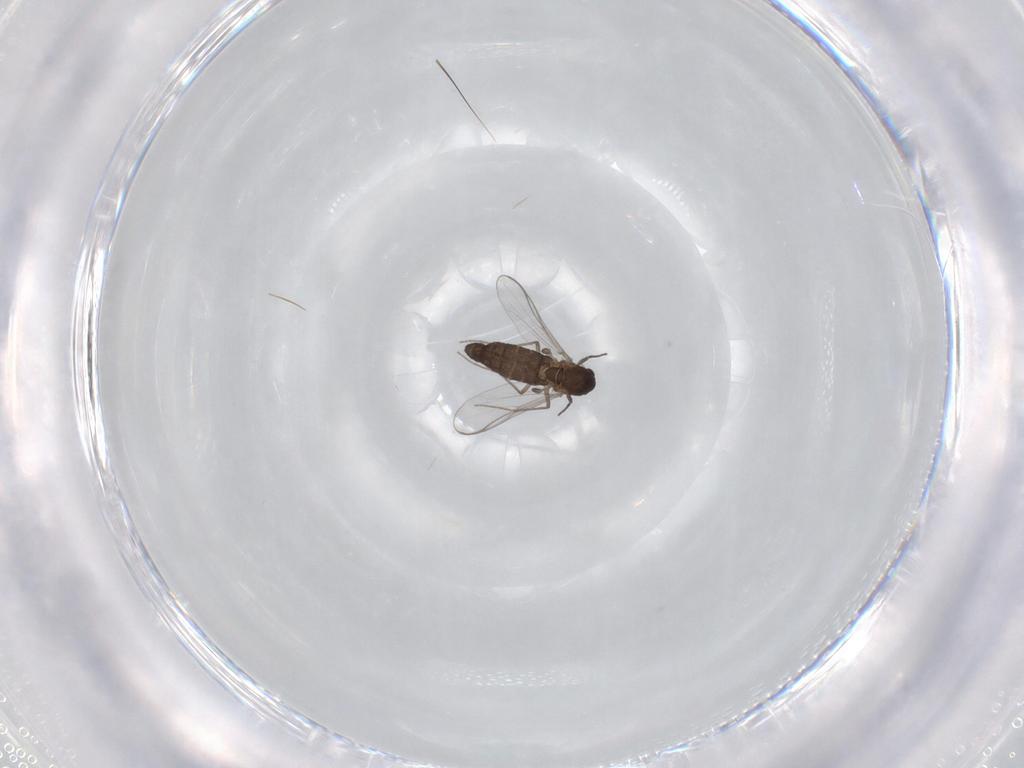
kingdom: Animalia
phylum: Arthropoda
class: Insecta
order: Diptera
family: Chironomidae
